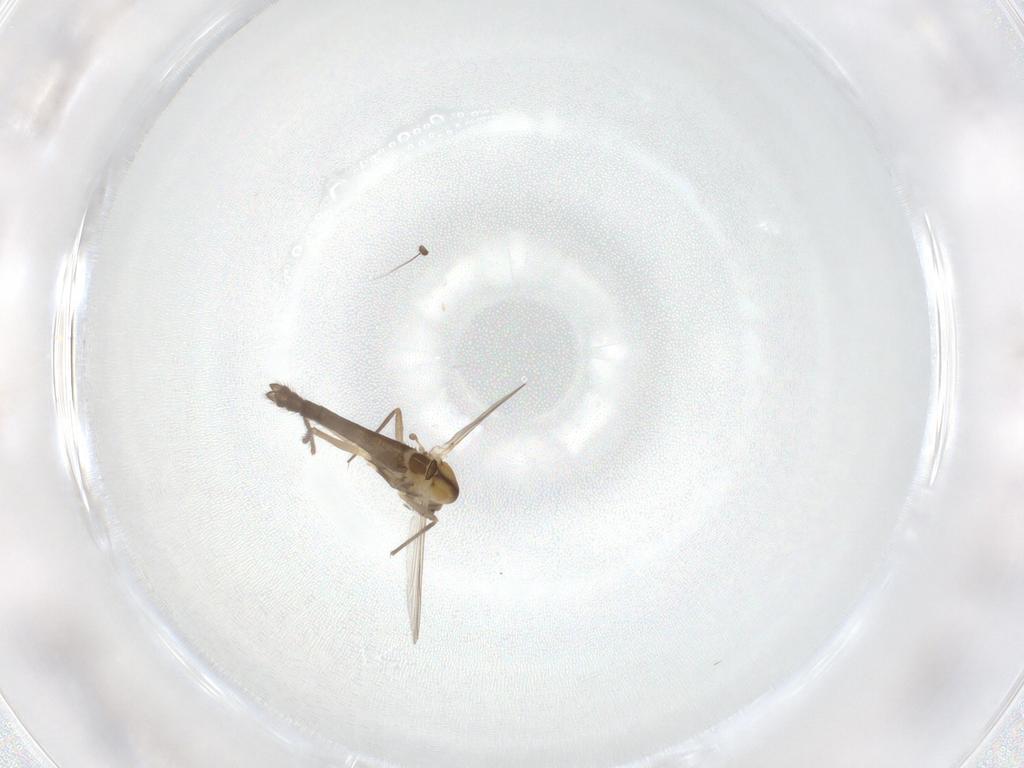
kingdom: Animalia
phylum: Arthropoda
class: Insecta
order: Diptera
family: Chironomidae
